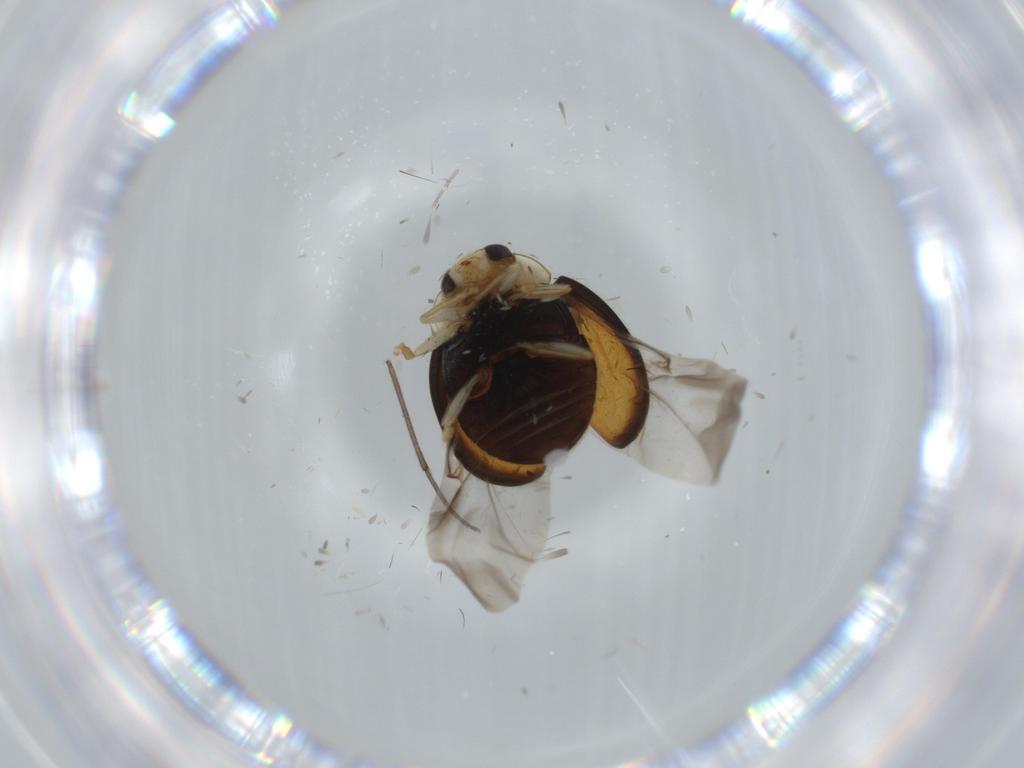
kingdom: Animalia
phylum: Arthropoda
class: Insecta
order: Coleoptera
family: Coccinellidae
